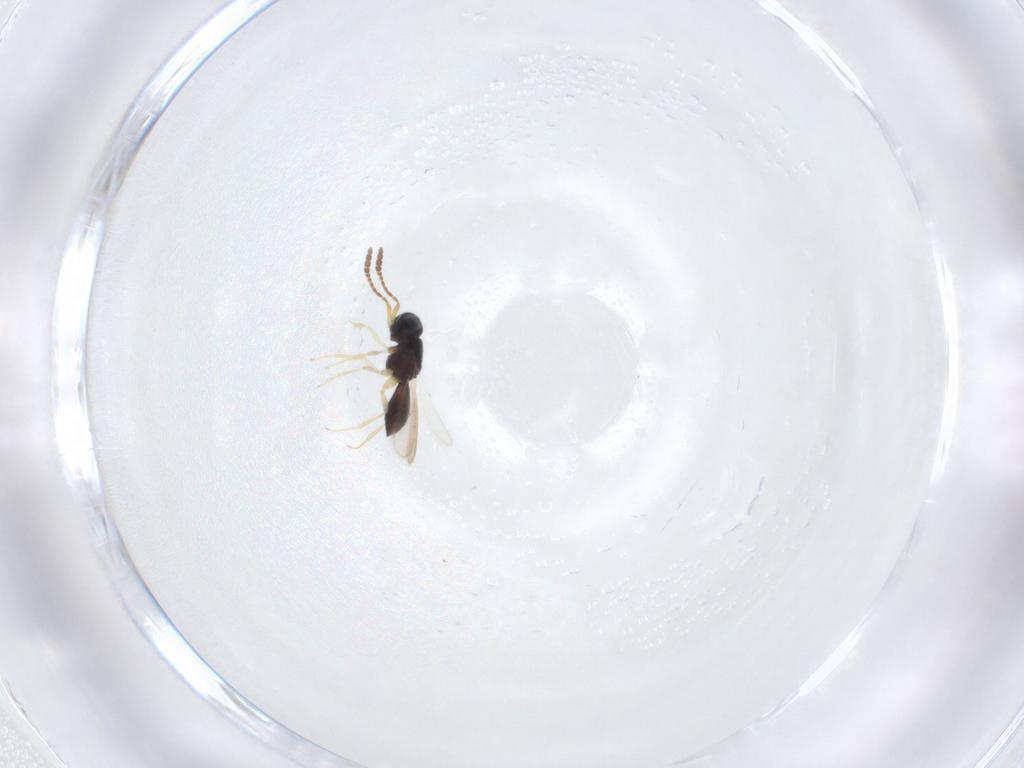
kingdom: Animalia
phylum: Arthropoda
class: Insecta
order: Hymenoptera
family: Scelionidae
